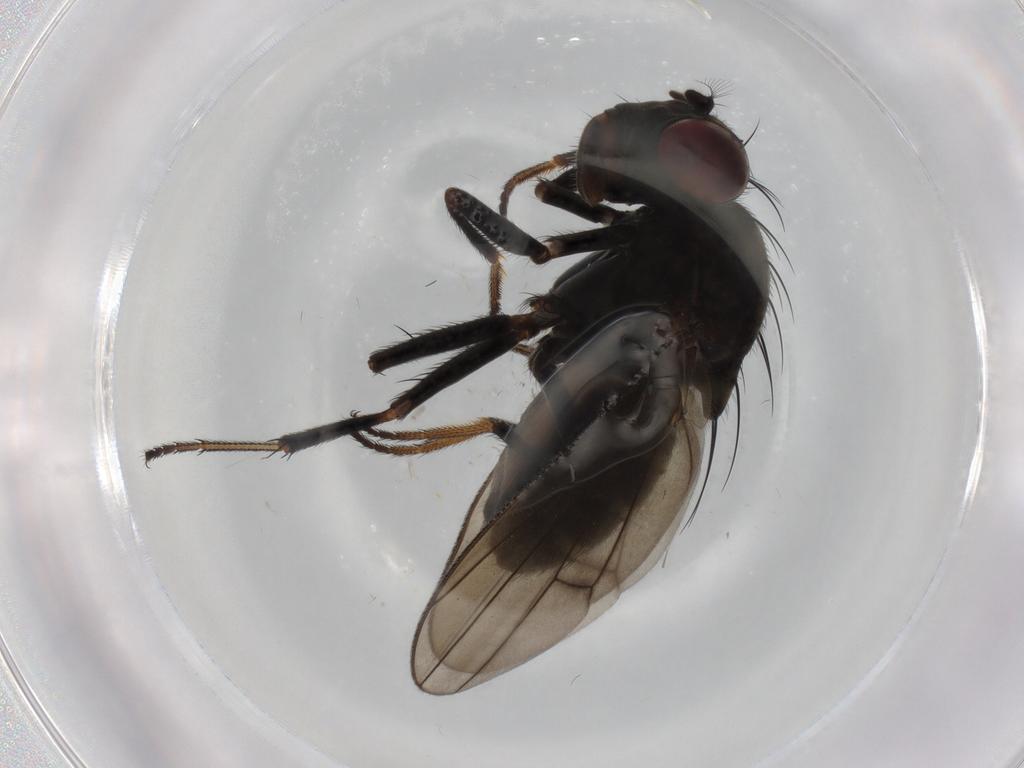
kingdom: Animalia
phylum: Arthropoda
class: Insecta
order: Diptera
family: Ephydridae
